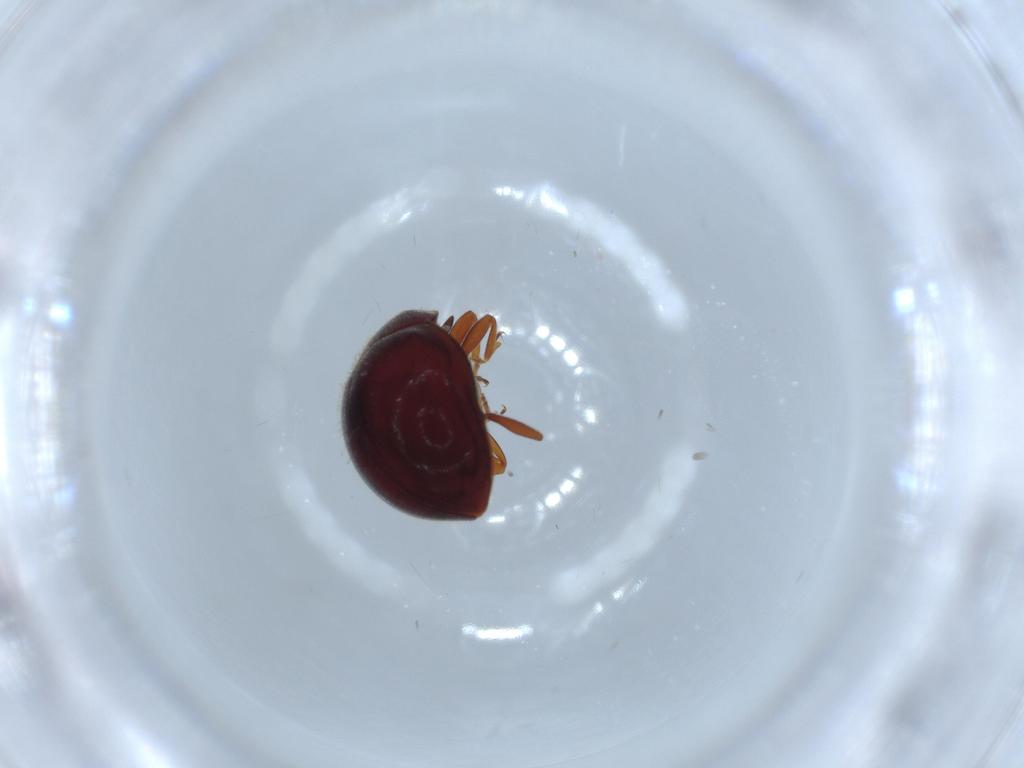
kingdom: Animalia
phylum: Arthropoda
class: Insecta
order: Coleoptera
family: Coccinellidae
